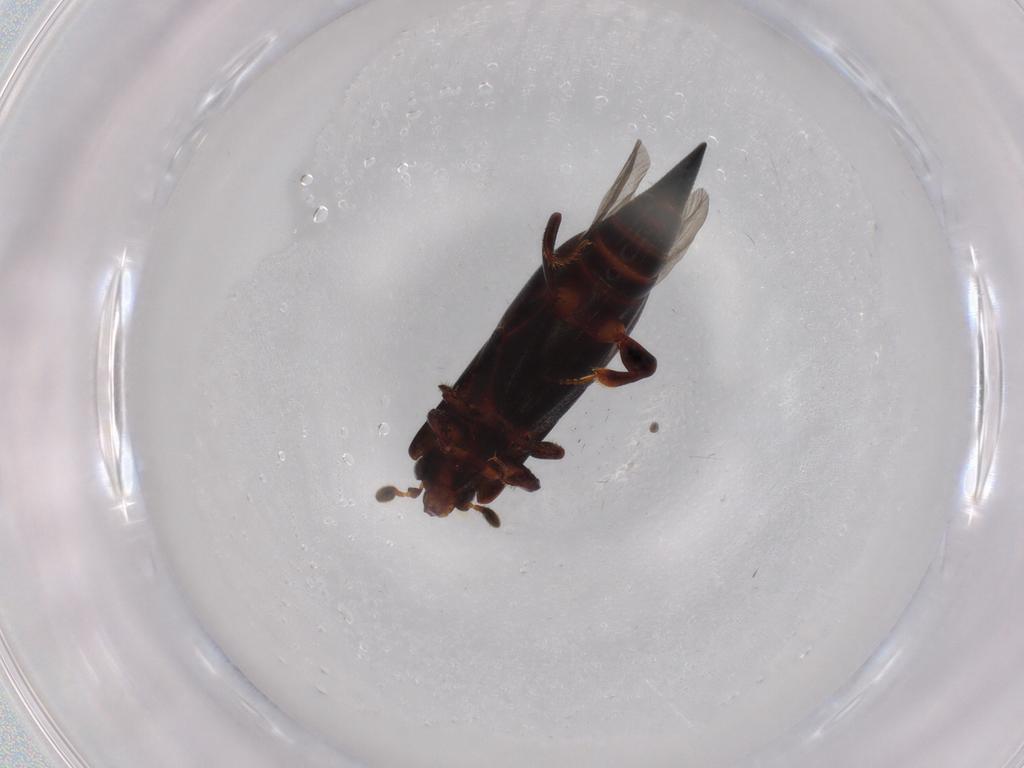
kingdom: Animalia
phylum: Arthropoda
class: Insecta
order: Coleoptera
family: Histeridae
